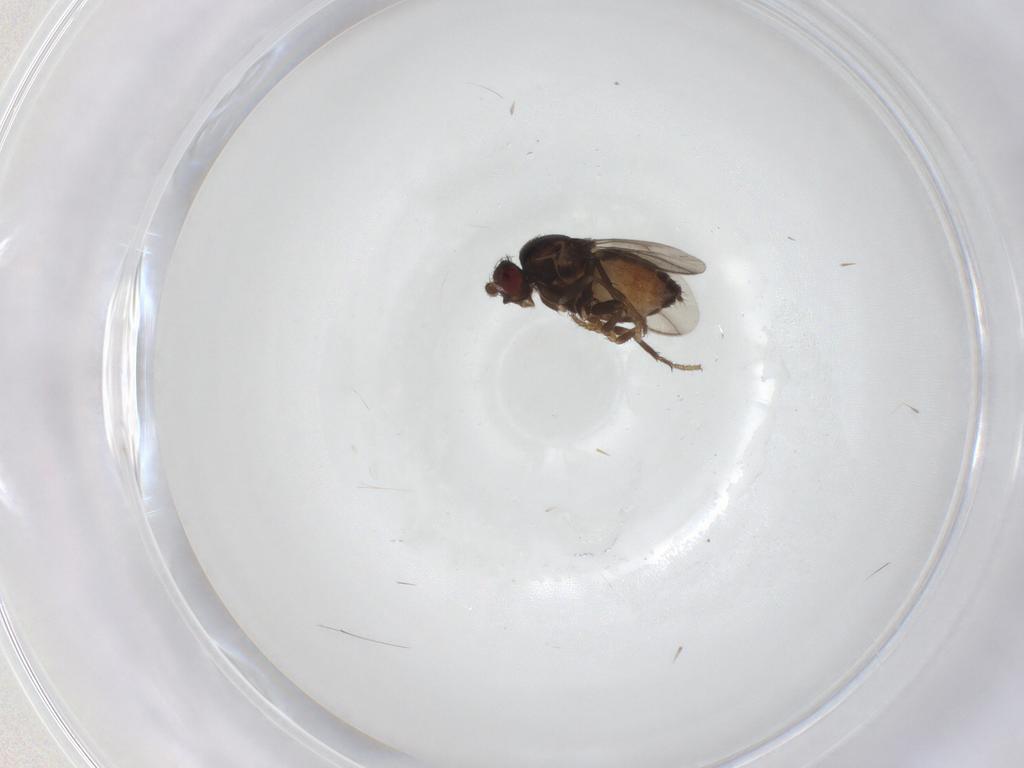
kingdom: Animalia
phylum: Arthropoda
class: Insecta
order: Diptera
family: Sphaeroceridae
